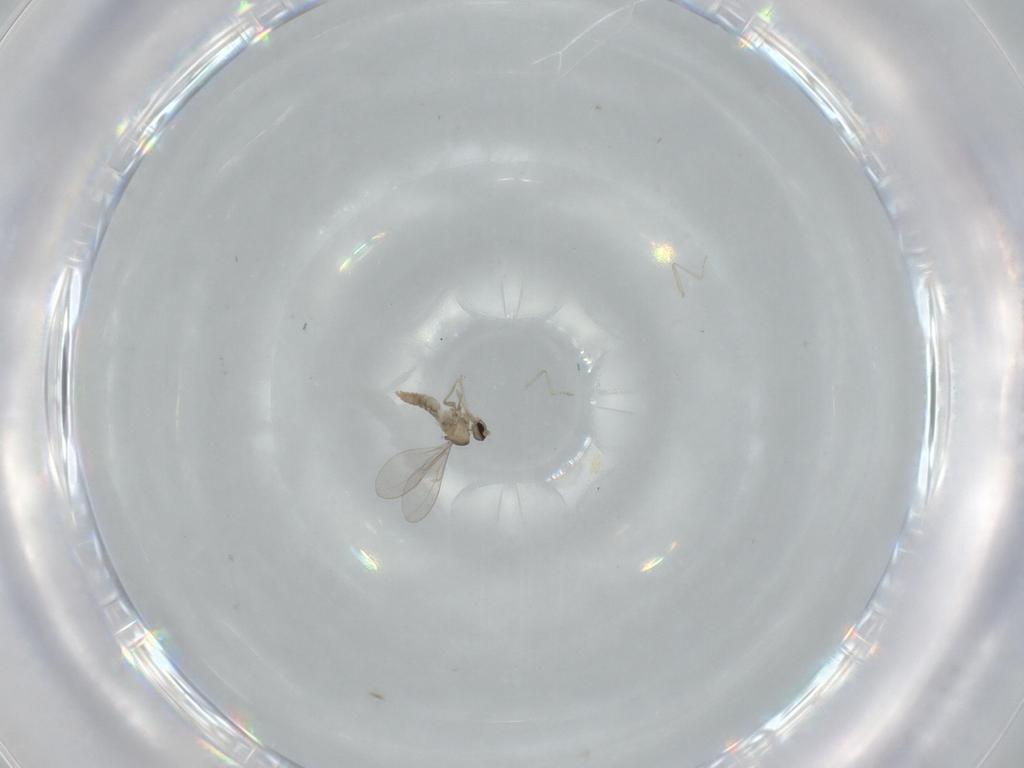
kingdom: Animalia
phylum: Arthropoda
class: Insecta
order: Diptera
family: Cecidomyiidae
